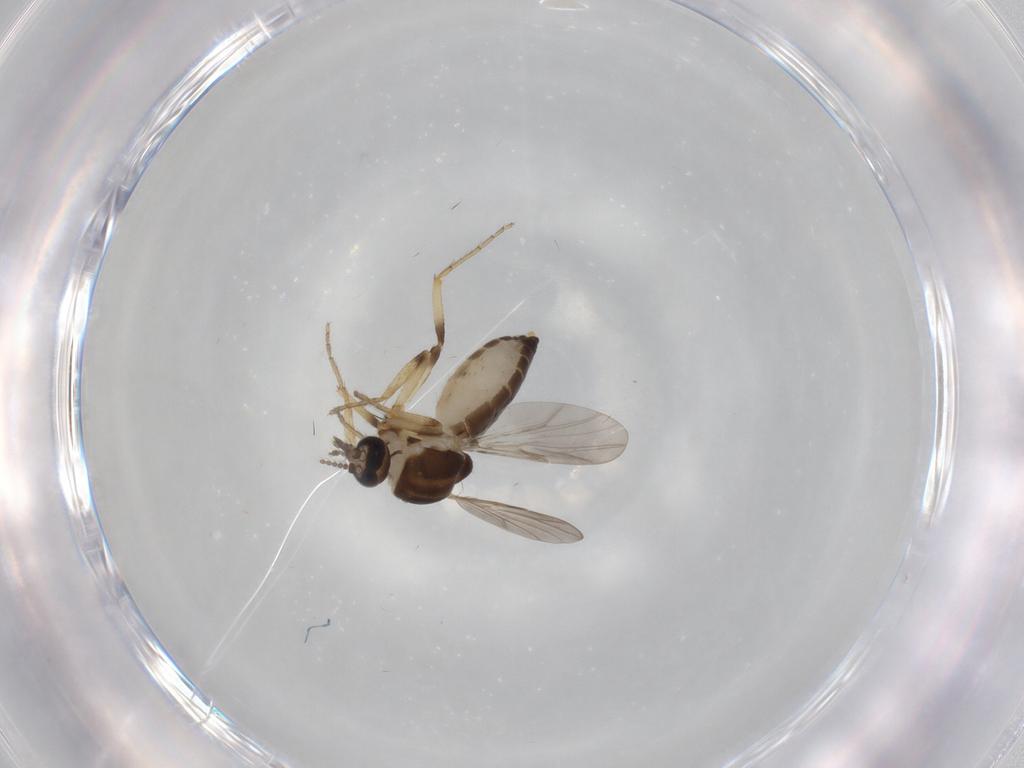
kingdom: Animalia
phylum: Arthropoda
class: Insecta
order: Diptera
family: Ceratopogonidae
